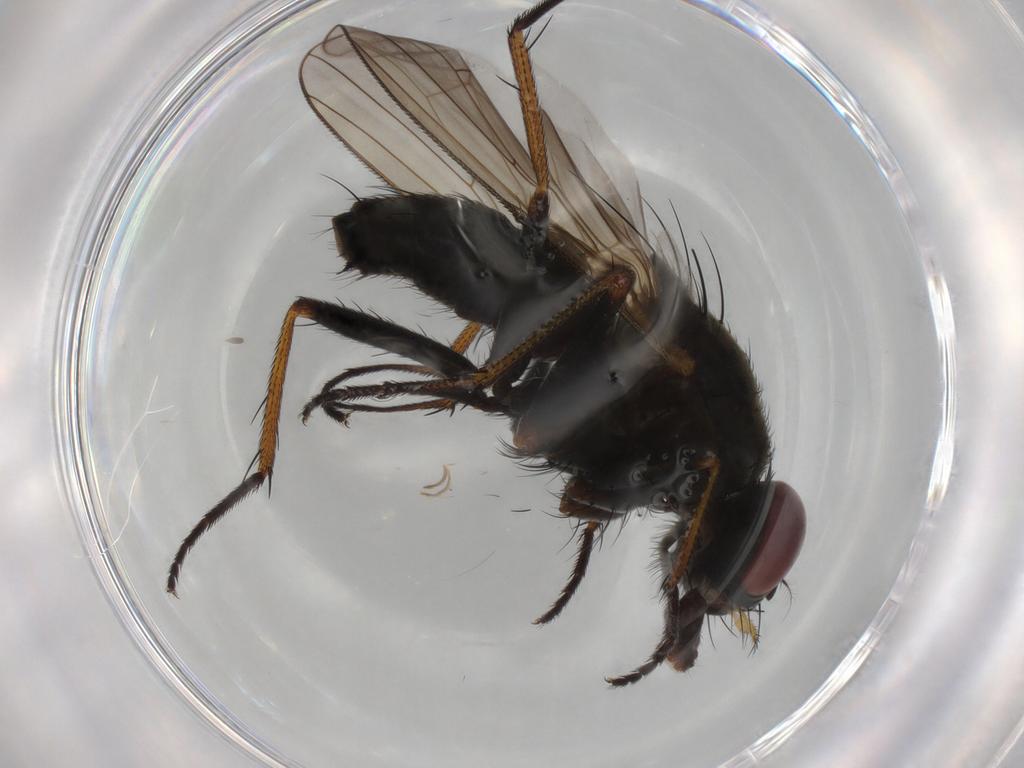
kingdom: Animalia
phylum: Arthropoda
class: Insecta
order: Diptera
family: Muscidae
